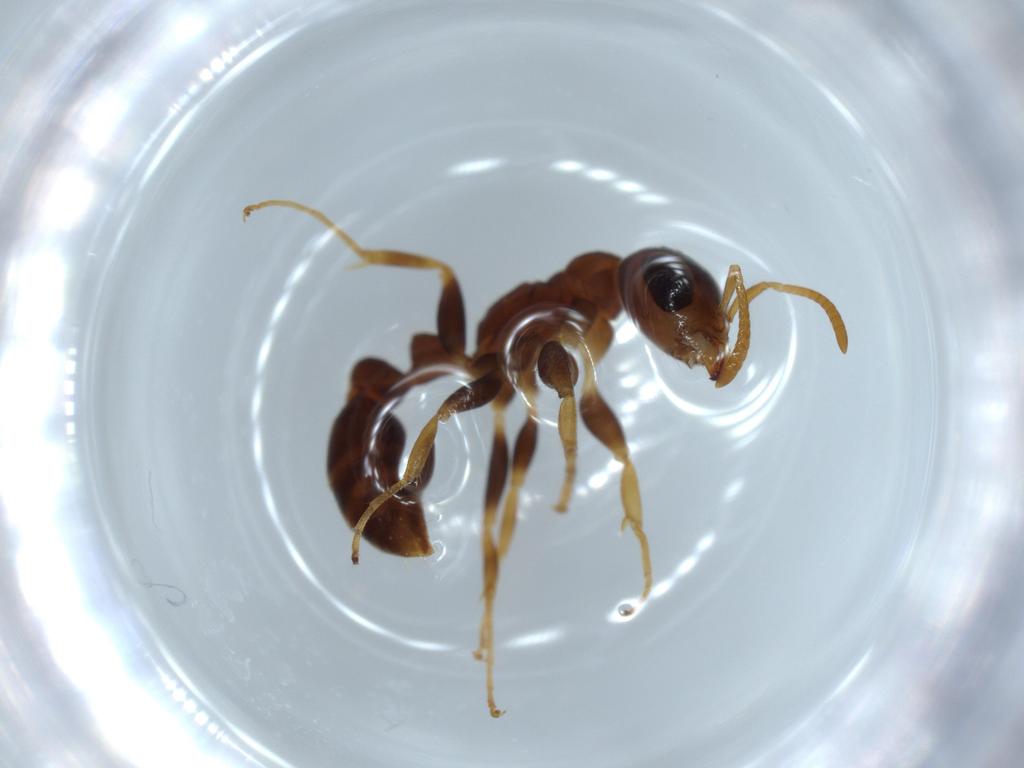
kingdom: Animalia
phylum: Arthropoda
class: Insecta
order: Hymenoptera
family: Formicidae
